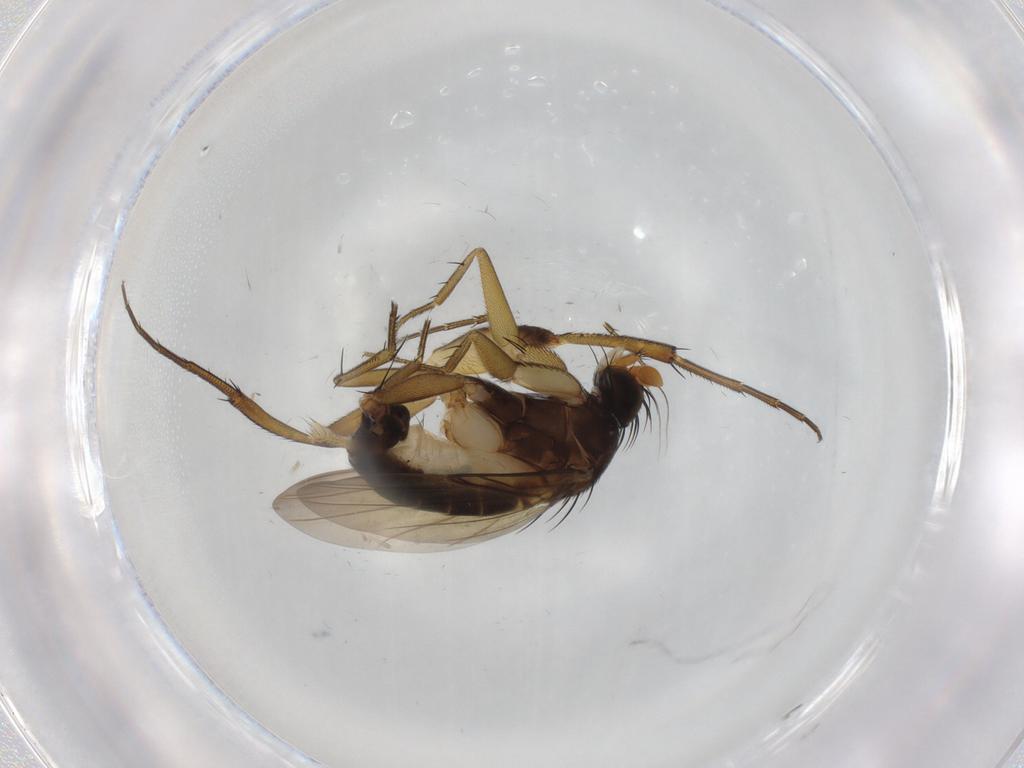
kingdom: Animalia
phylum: Arthropoda
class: Insecta
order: Diptera
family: Phoridae
